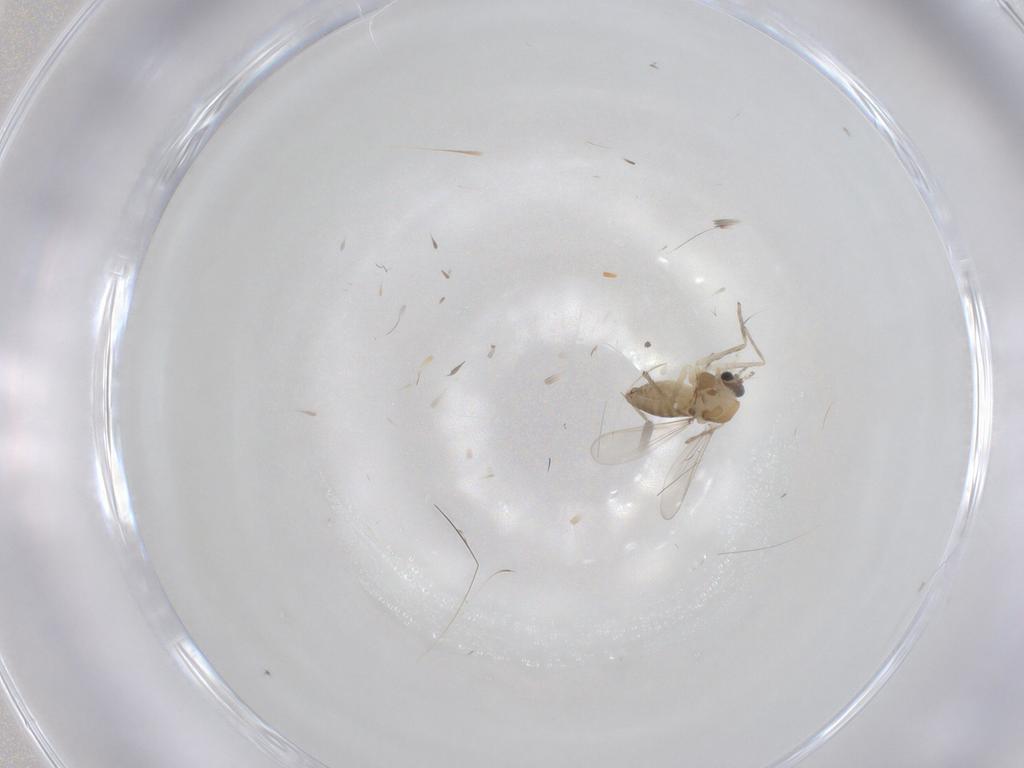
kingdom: Animalia
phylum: Arthropoda
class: Insecta
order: Diptera
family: Chironomidae
